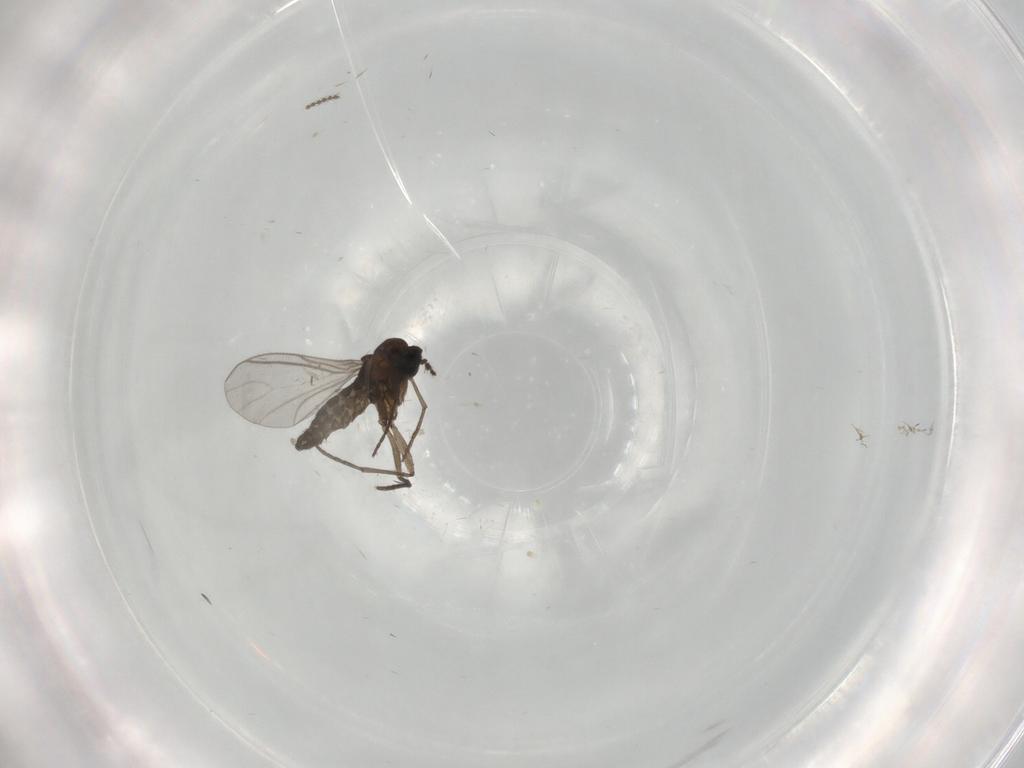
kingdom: Animalia
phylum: Arthropoda
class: Insecta
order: Diptera
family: Chironomidae
